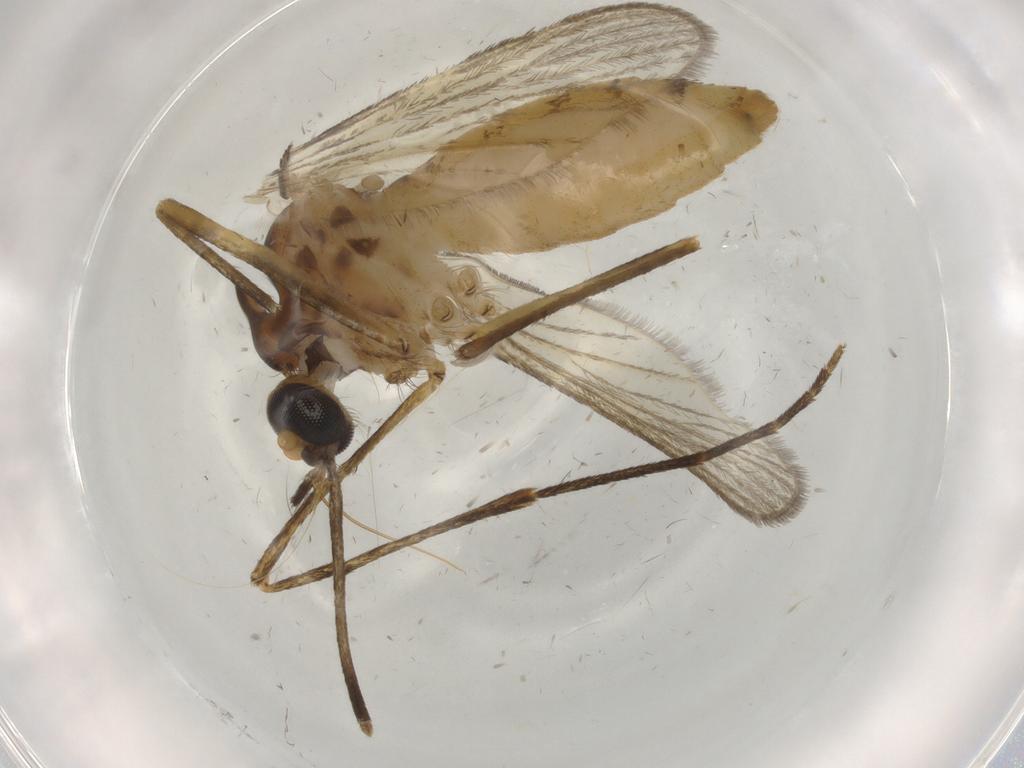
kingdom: Animalia
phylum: Arthropoda
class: Insecta
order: Diptera
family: Culicidae
